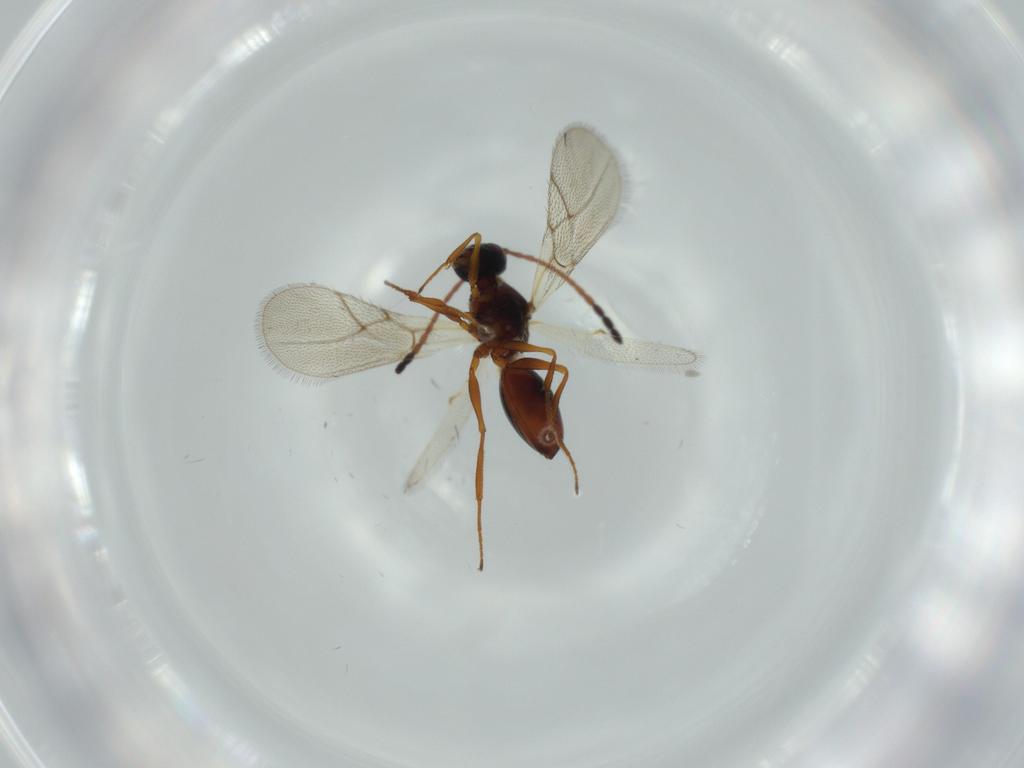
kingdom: Animalia
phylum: Arthropoda
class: Insecta
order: Hymenoptera
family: Figitidae
